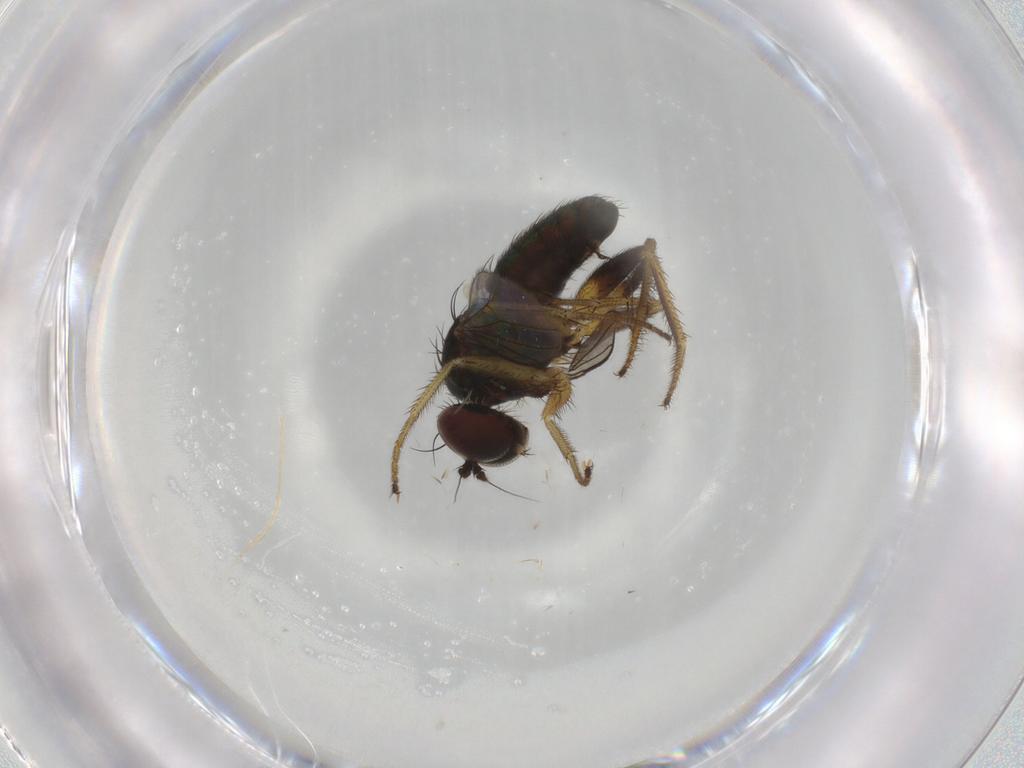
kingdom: Animalia
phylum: Arthropoda
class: Insecta
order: Diptera
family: Dolichopodidae
